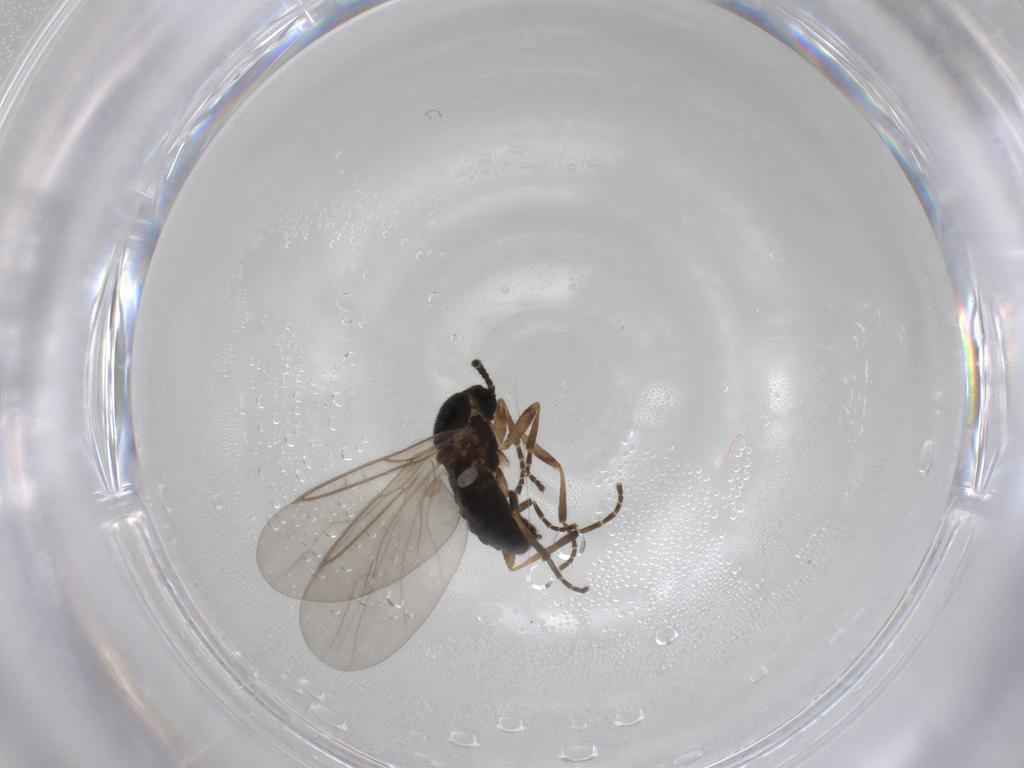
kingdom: Animalia
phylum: Arthropoda
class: Insecta
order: Diptera
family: Chironomidae
